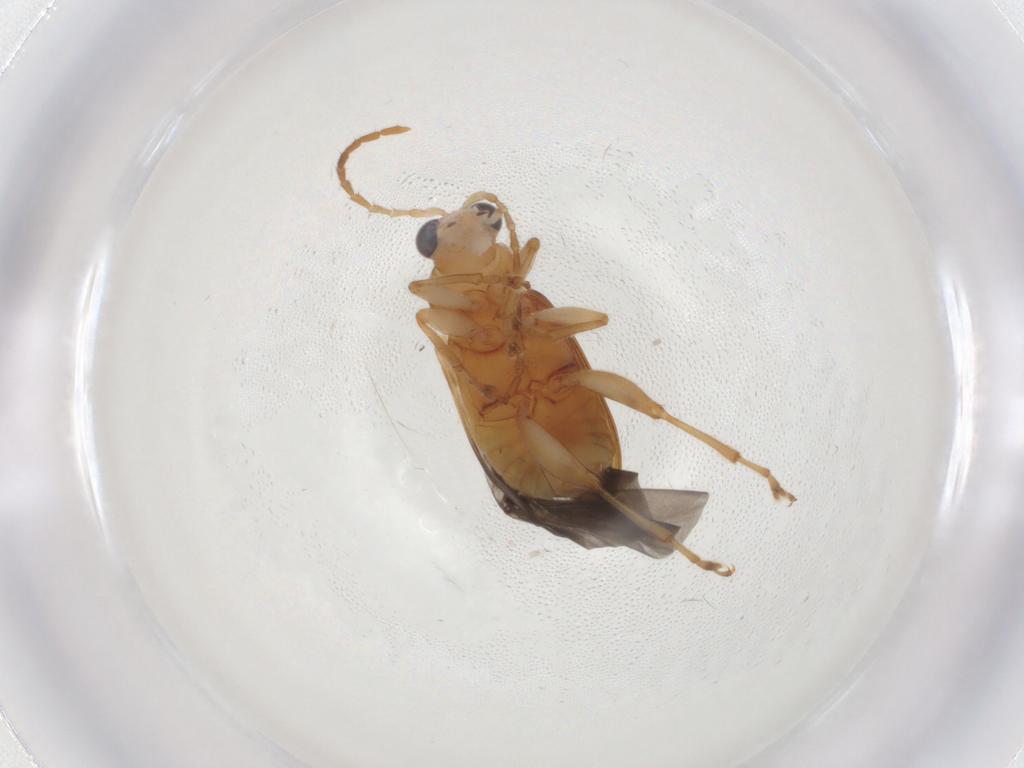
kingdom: Animalia
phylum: Arthropoda
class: Insecta
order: Coleoptera
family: Chrysomelidae
